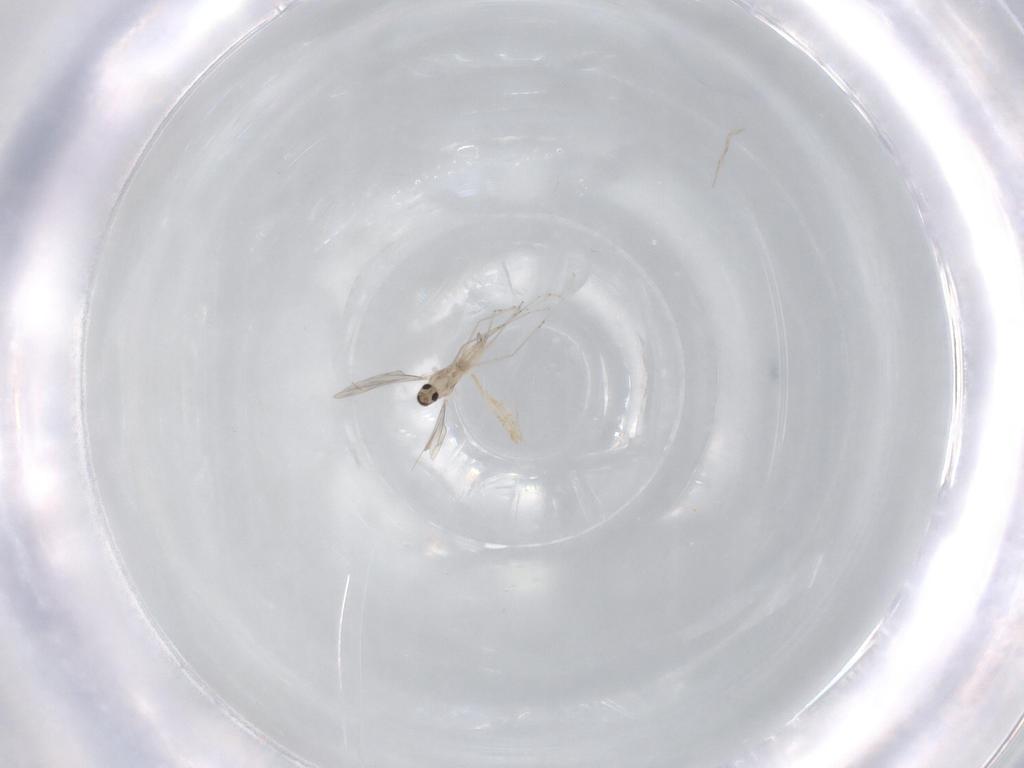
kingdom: Animalia
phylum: Arthropoda
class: Insecta
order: Diptera
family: Cecidomyiidae
